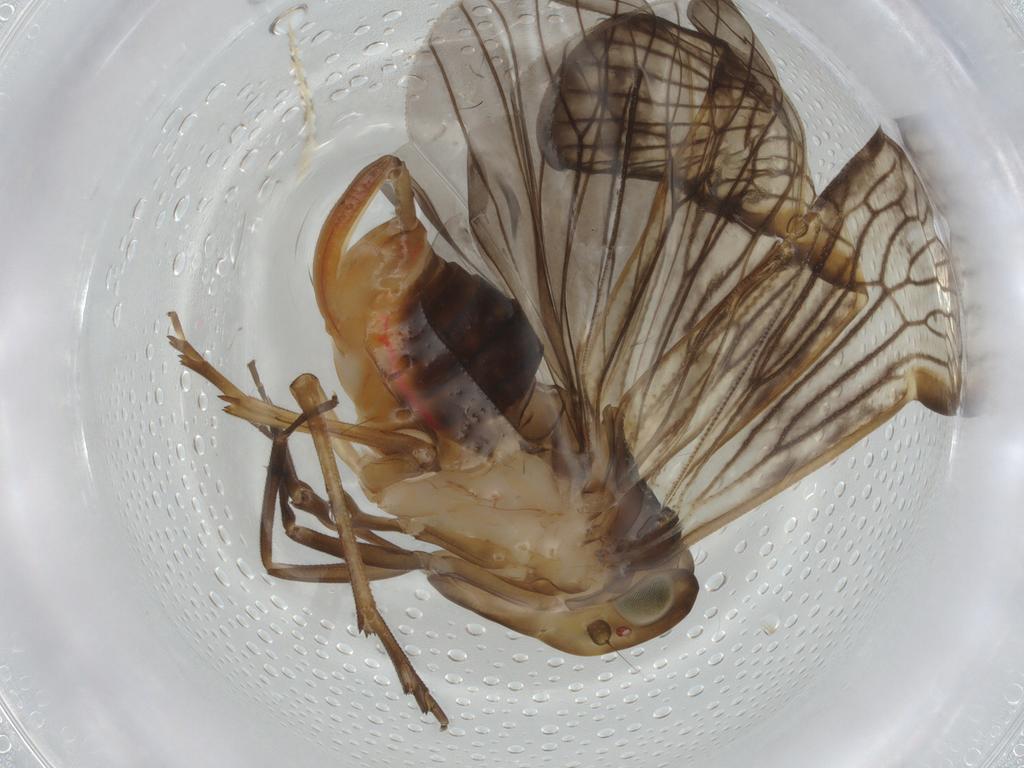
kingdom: Animalia
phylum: Arthropoda
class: Insecta
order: Hemiptera
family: Cixiidae
